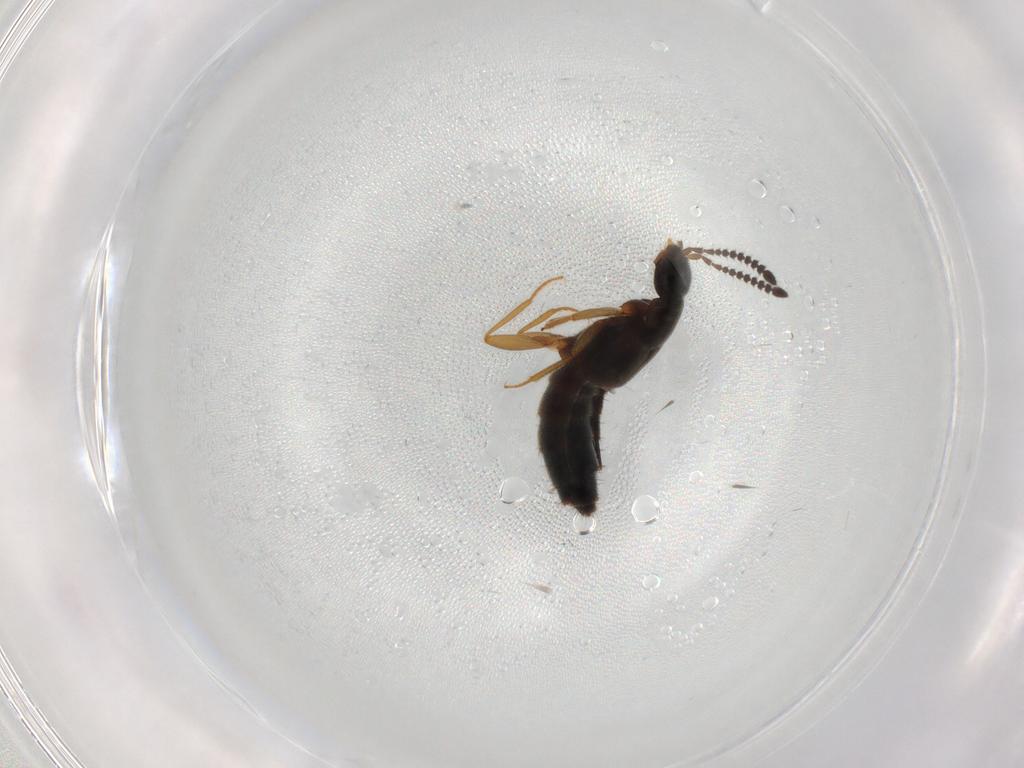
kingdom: Animalia
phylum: Arthropoda
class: Insecta
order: Coleoptera
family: Staphylinidae
